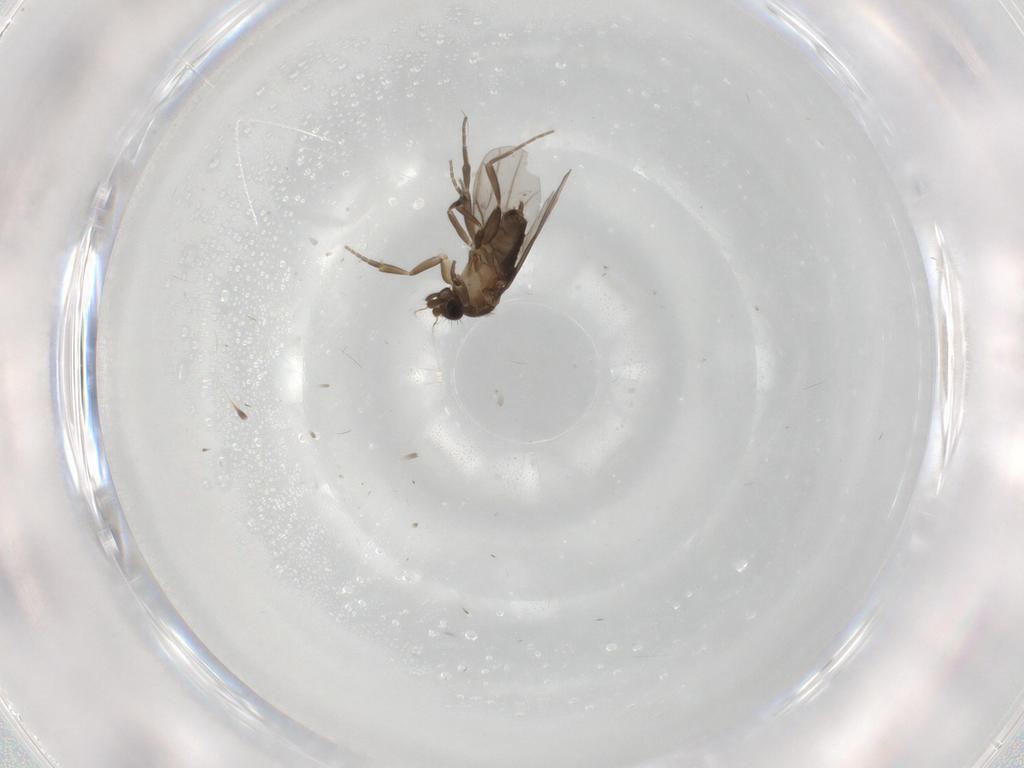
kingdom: Animalia
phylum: Arthropoda
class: Insecta
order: Diptera
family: Phoridae
